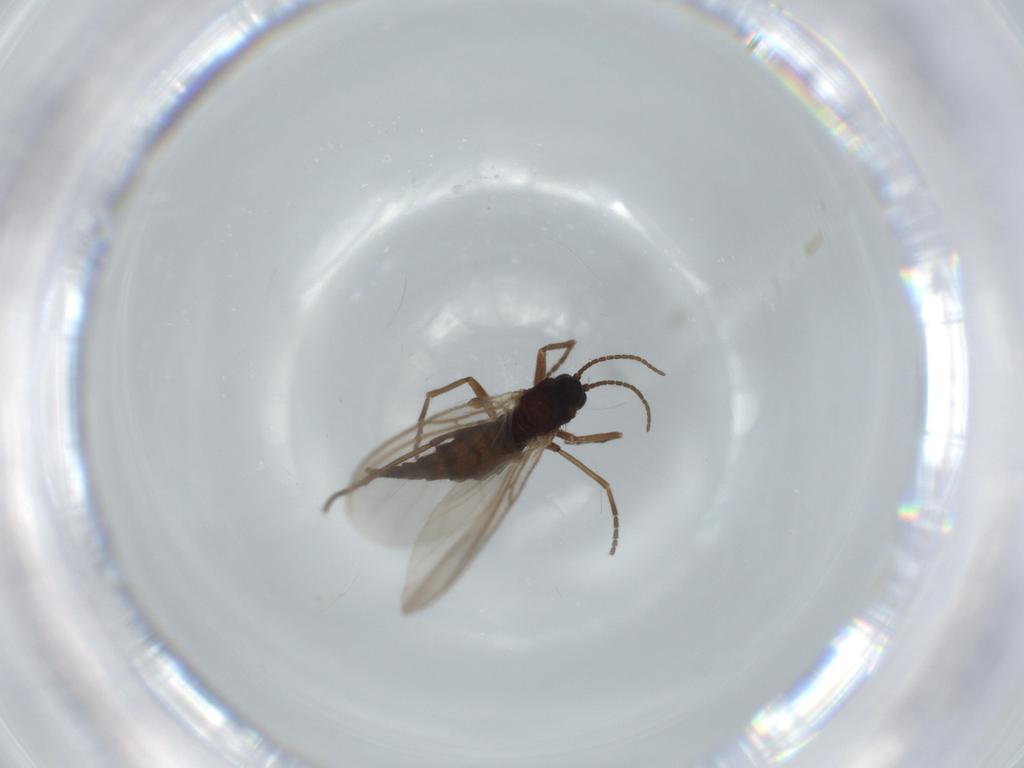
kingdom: Animalia
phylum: Arthropoda
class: Insecta
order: Diptera
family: Sciaridae
